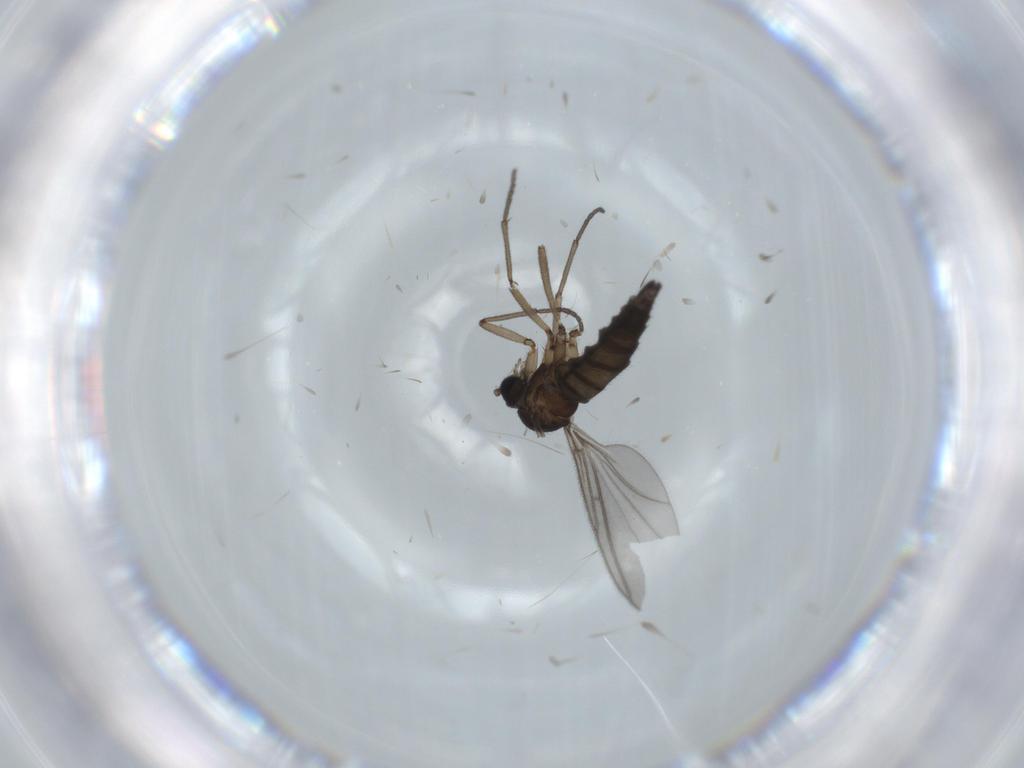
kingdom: Animalia
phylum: Arthropoda
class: Insecta
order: Diptera
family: Sciaridae
